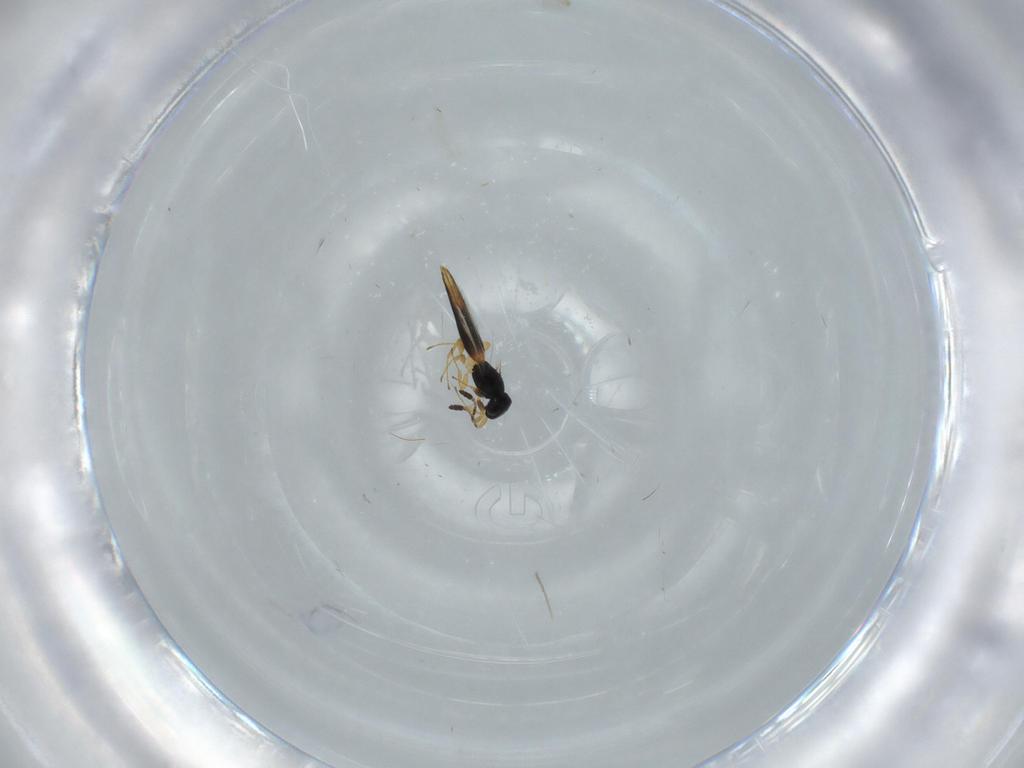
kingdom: Animalia
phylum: Arthropoda
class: Insecta
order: Hymenoptera
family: Scelionidae
